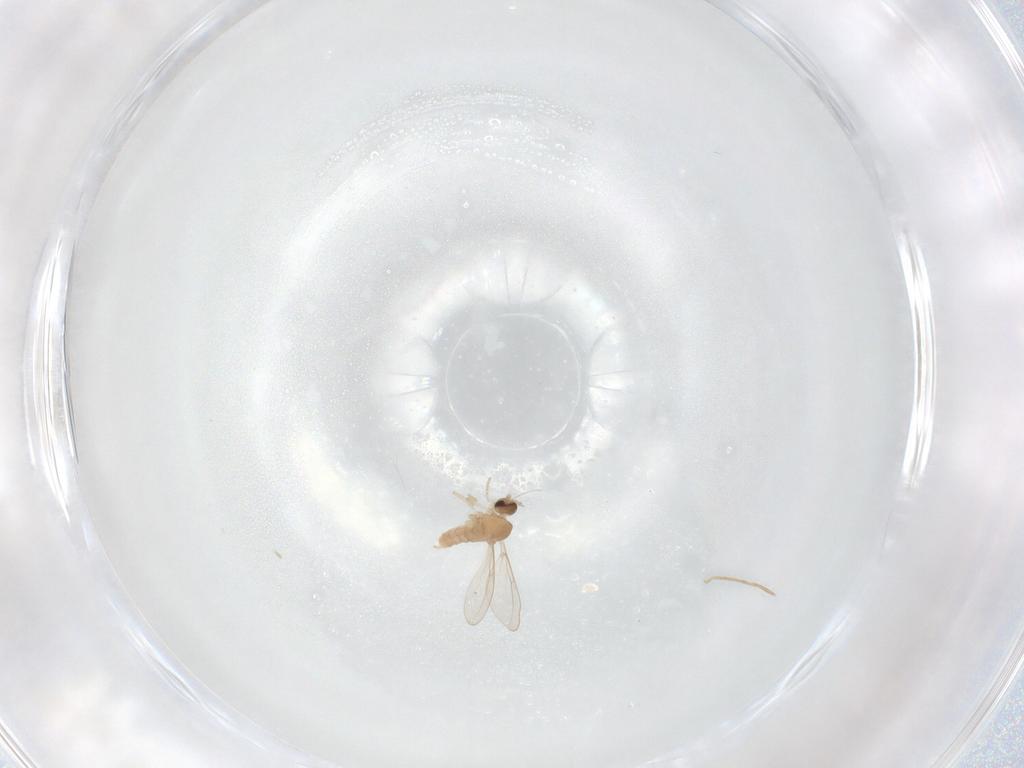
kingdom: Animalia
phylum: Arthropoda
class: Insecta
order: Diptera
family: Cecidomyiidae
